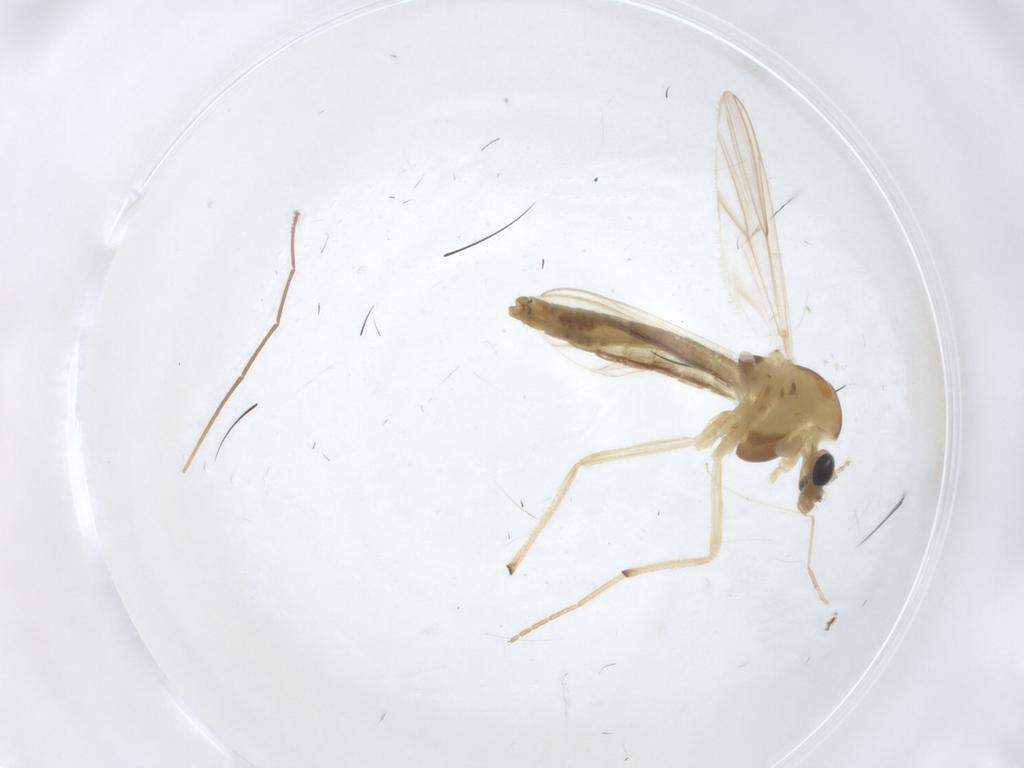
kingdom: Animalia
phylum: Arthropoda
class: Insecta
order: Diptera
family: Chironomidae
